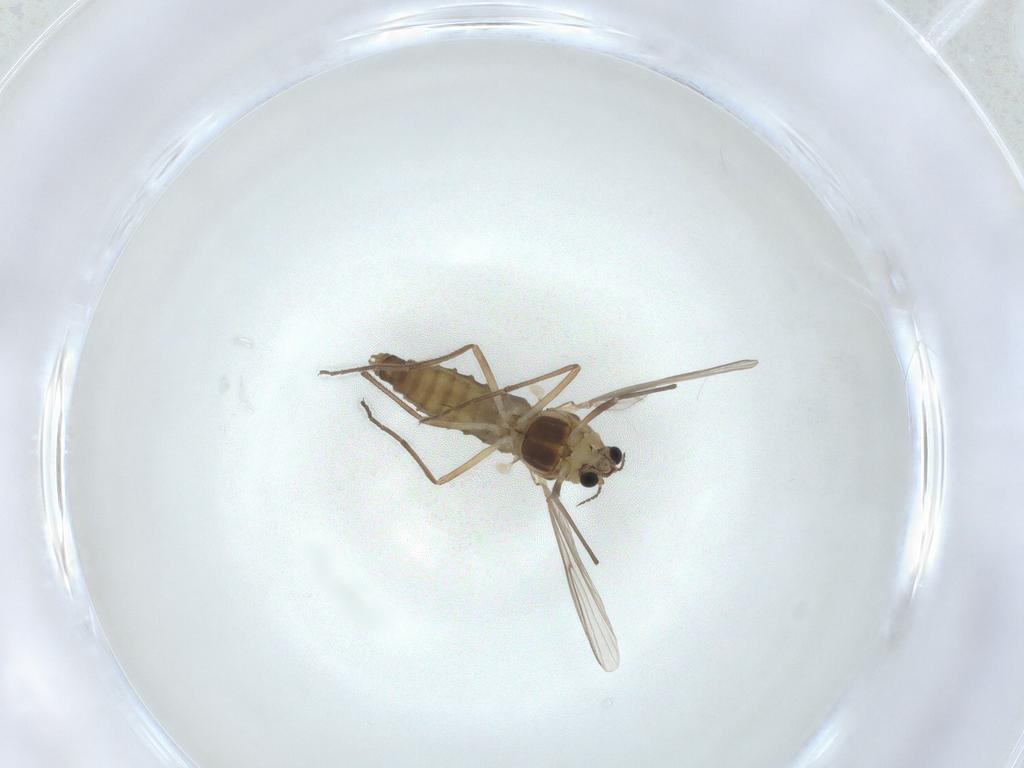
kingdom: Animalia
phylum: Arthropoda
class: Insecta
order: Diptera
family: Chironomidae
